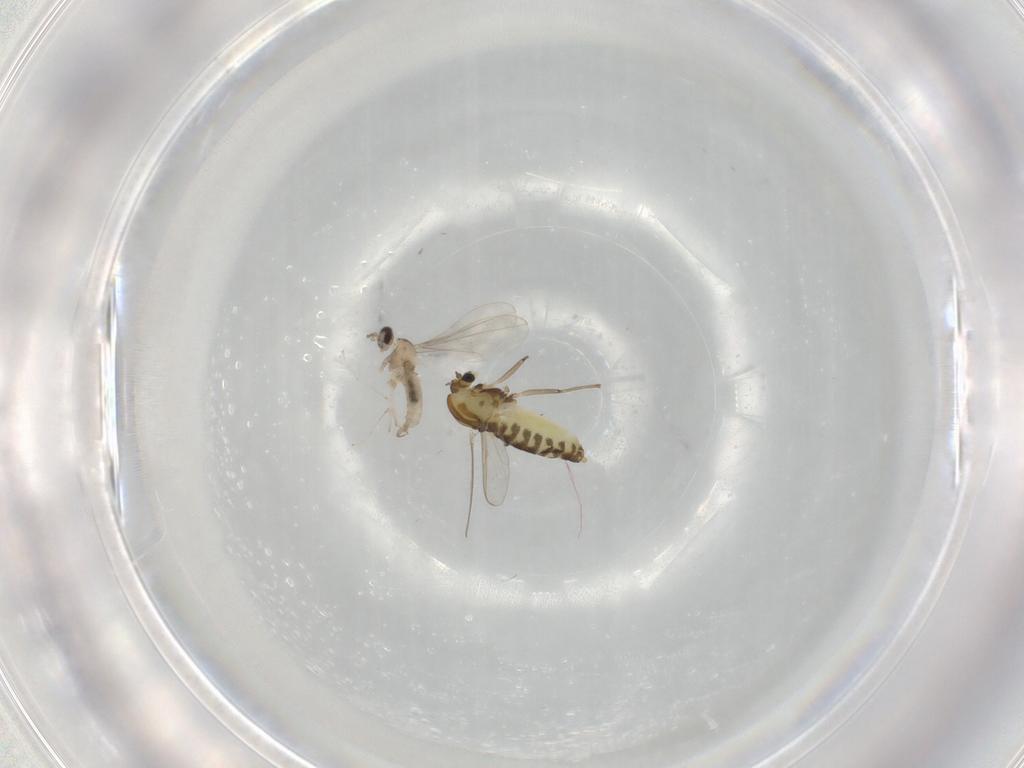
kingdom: Animalia
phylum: Arthropoda
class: Insecta
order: Diptera
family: Chironomidae
